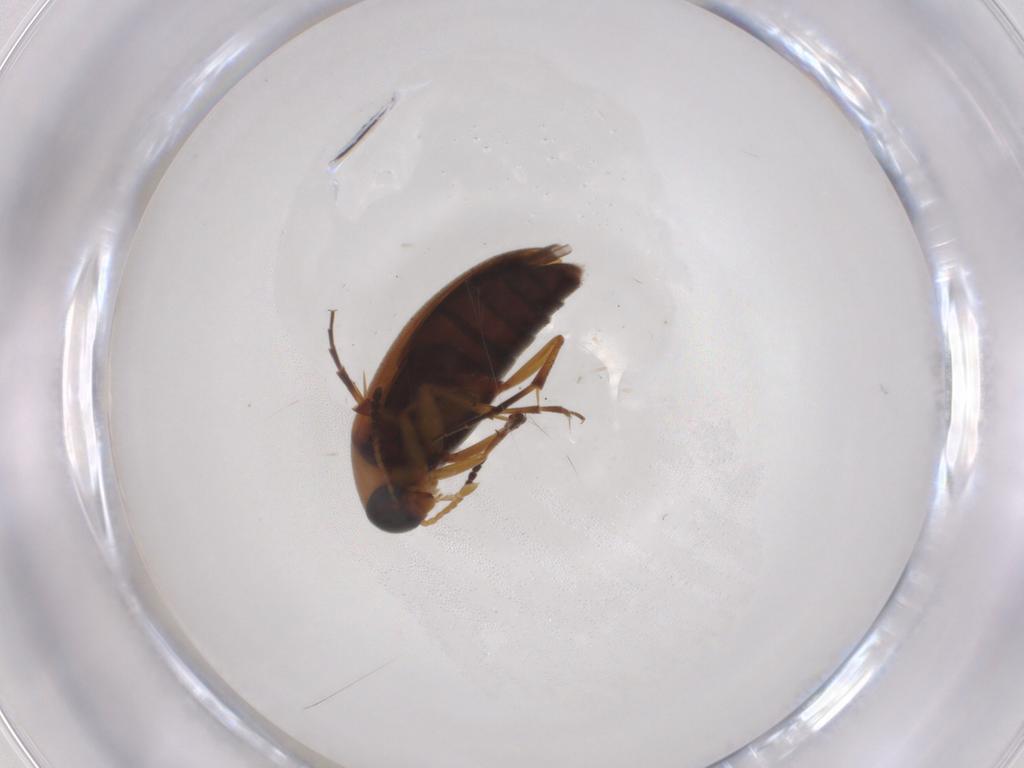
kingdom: Animalia
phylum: Arthropoda
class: Insecta
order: Coleoptera
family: Scraptiidae
